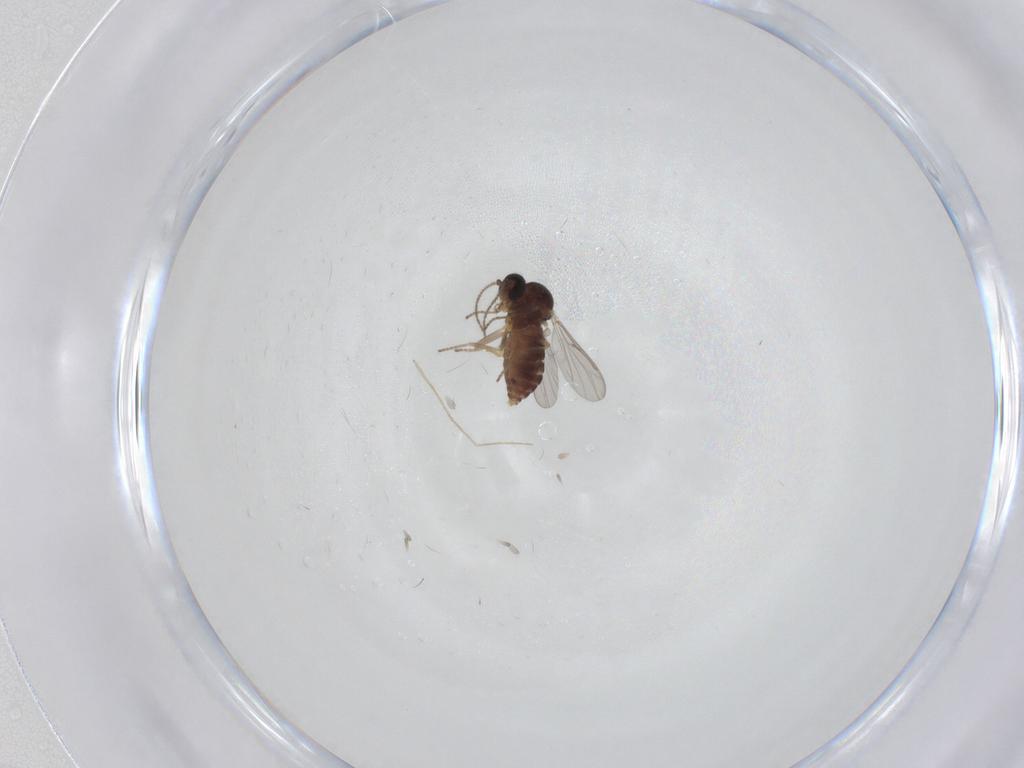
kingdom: Animalia
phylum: Arthropoda
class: Insecta
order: Diptera
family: Ceratopogonidae
